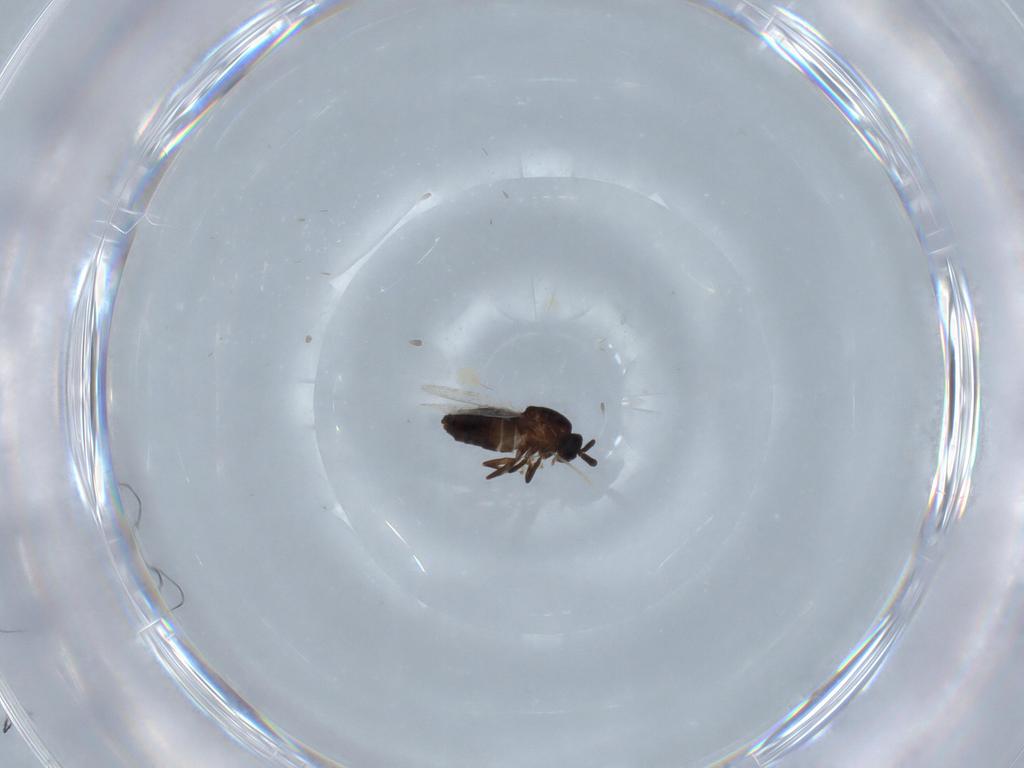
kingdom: Animalia
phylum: Arthropoda
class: Insecta
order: Diptera
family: Scatopsidae
